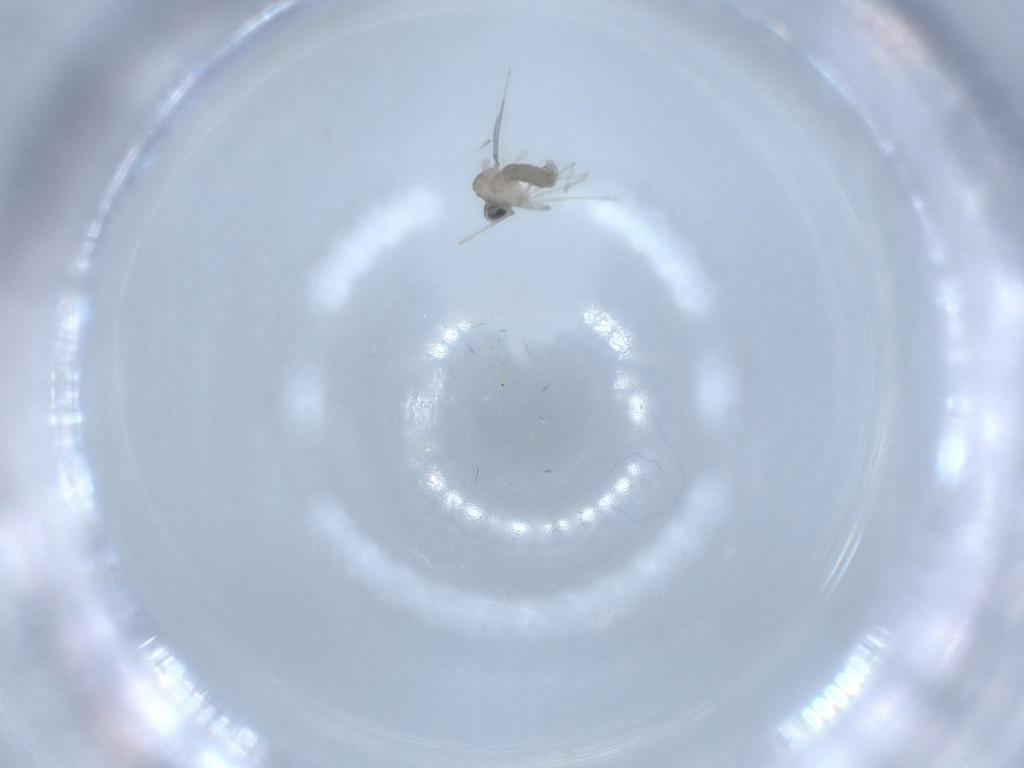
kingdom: Animalia
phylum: Arthropoda
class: Insecta
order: Diptera
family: Cecidomyiidae
